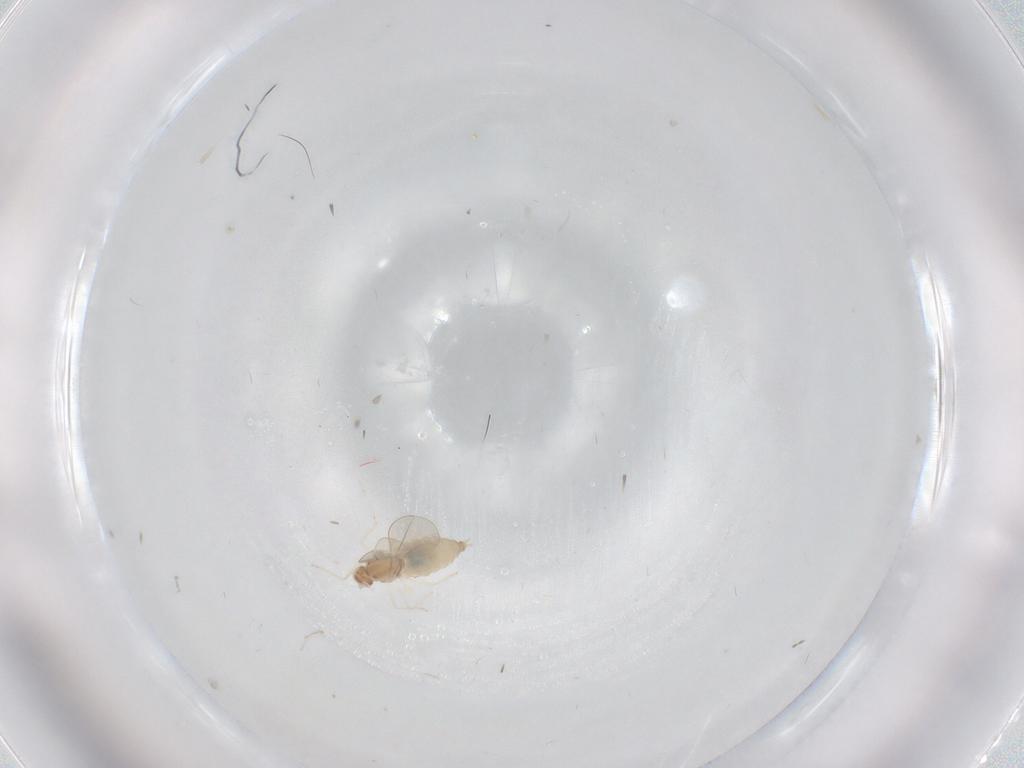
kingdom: Animalia
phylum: Arthropoda
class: Insecta
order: Diptera
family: Cecidomyiidae
